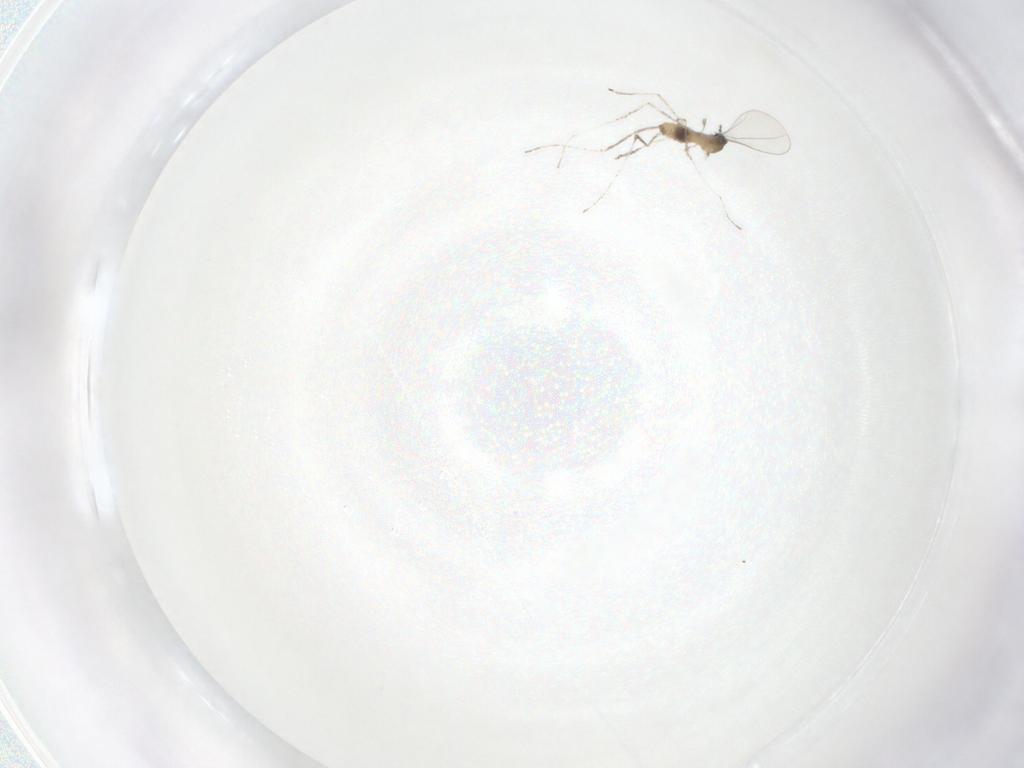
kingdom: Animalia
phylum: Arthropoda
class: Insecta
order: Diptera
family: Cecidomyiidae
